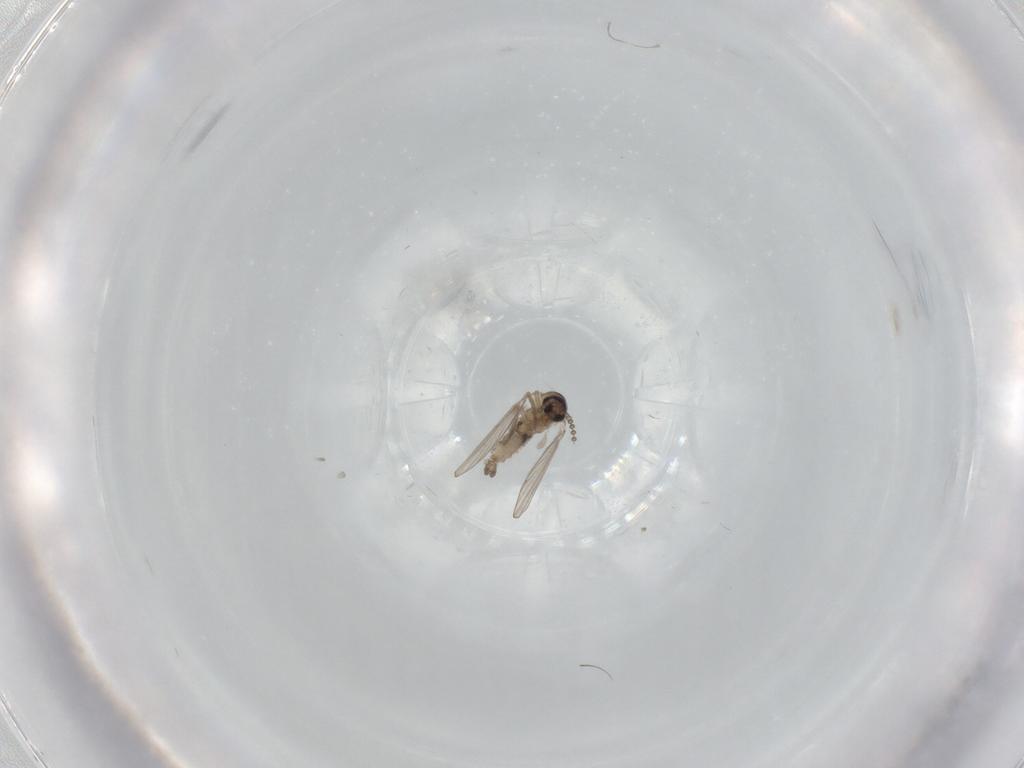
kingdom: Animalia
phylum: Arthropoda
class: Insecta
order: Diptera
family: Psychodidae
